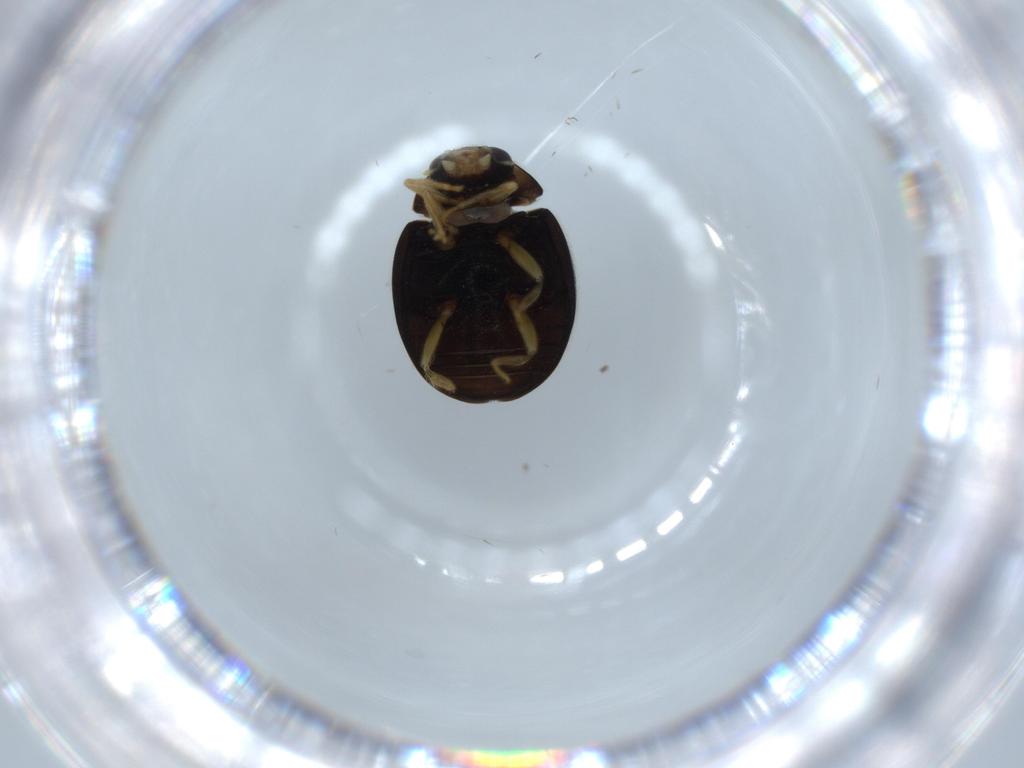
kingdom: Animalia
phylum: Arthropoda
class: Insecta
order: Coleoptera
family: Coccinellidae
